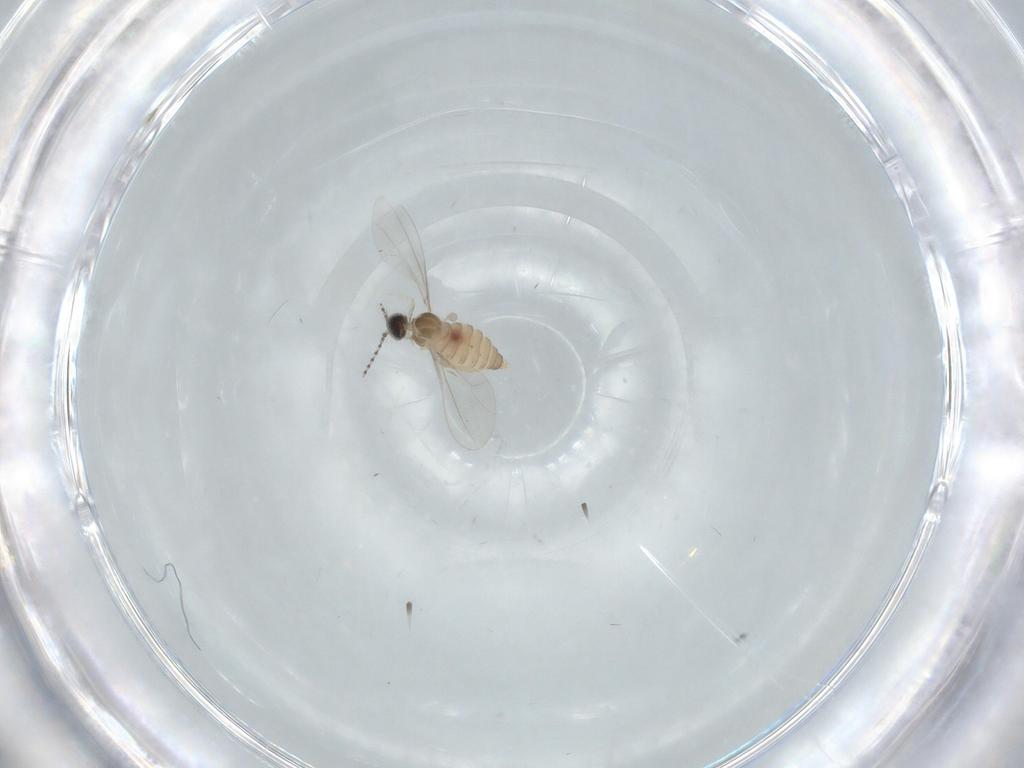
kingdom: Animalia
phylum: Arthropoda
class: Insecta
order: Diptera
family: Cecidomyiidae
